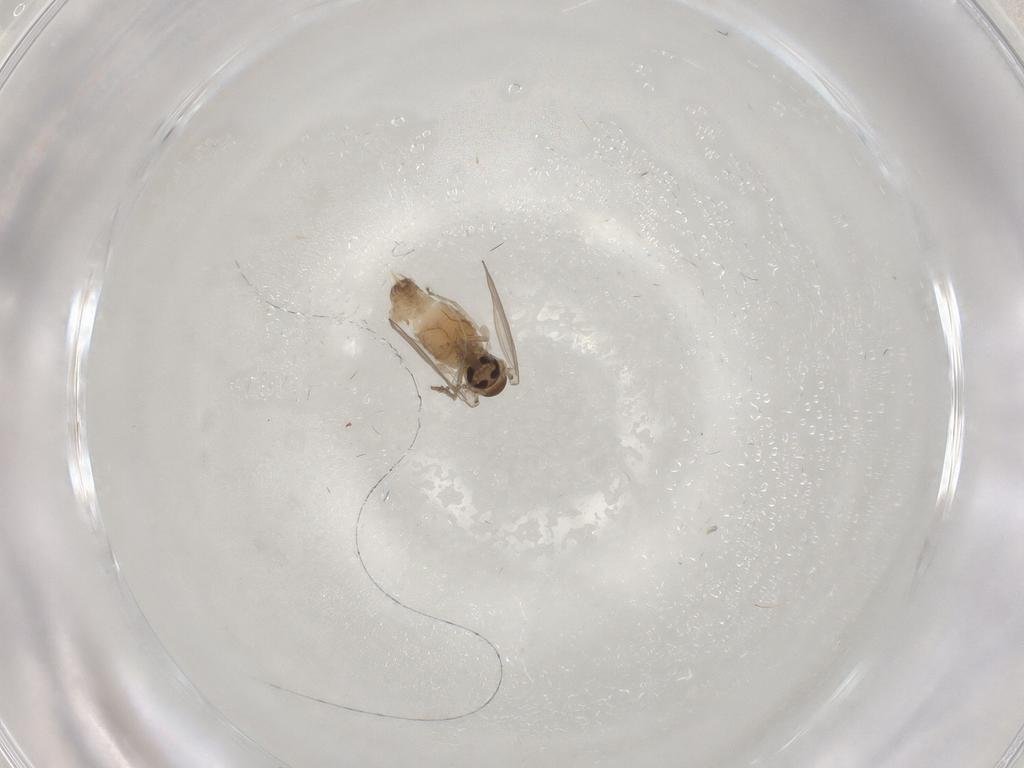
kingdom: Animalia
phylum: Arthropoda
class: Insecta
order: Diptera
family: Psychodidae
